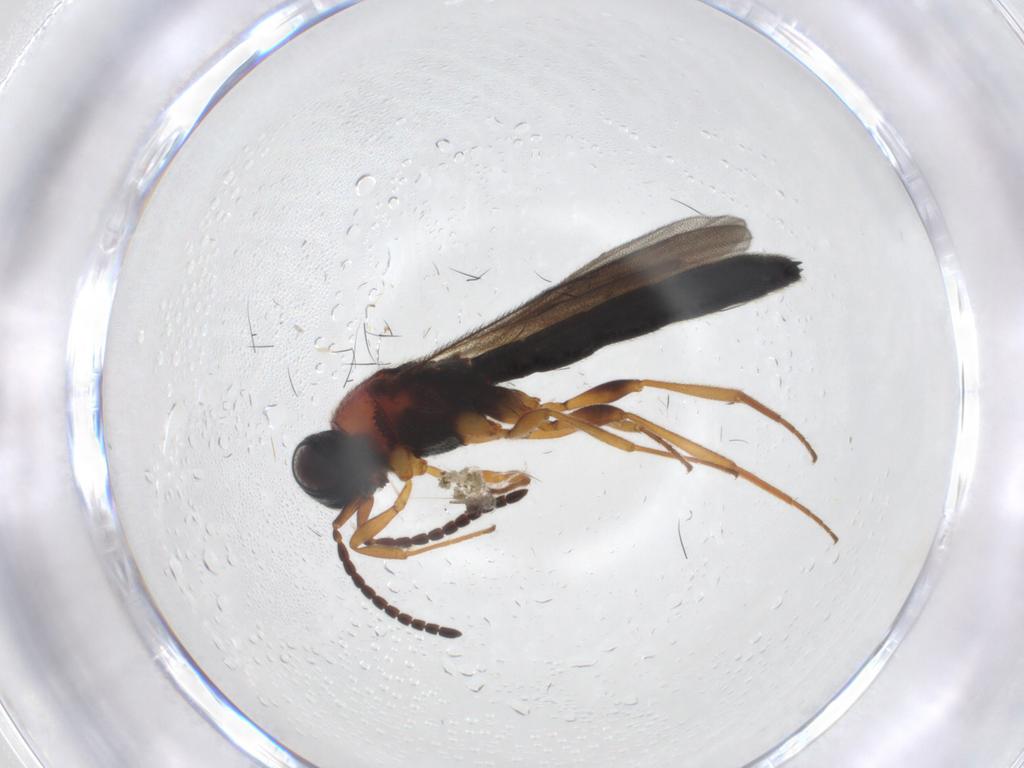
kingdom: Animalia
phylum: Arthropoda
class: Insecta
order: Hymenoptera
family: Scelionidae
